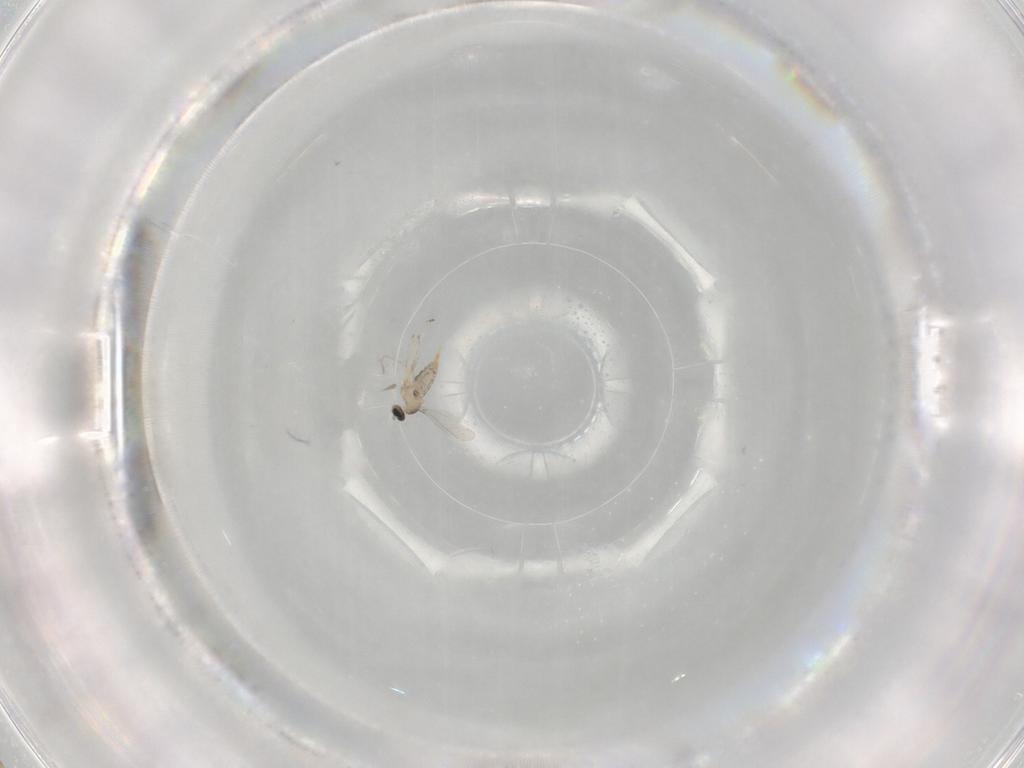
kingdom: Animalia
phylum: Arthropoda
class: Insecta
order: Diptera
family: Cecidomyiidae
